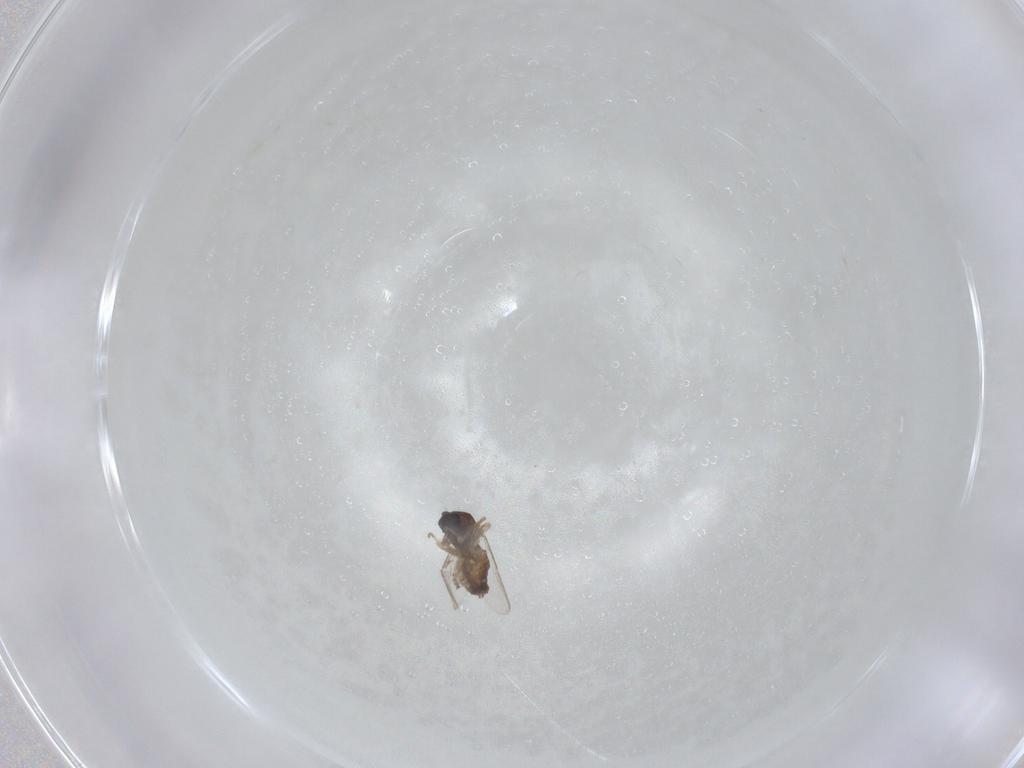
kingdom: Animalia
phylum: Arthropoda
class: Insecta
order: Diptera
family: Ceratopogonidae
